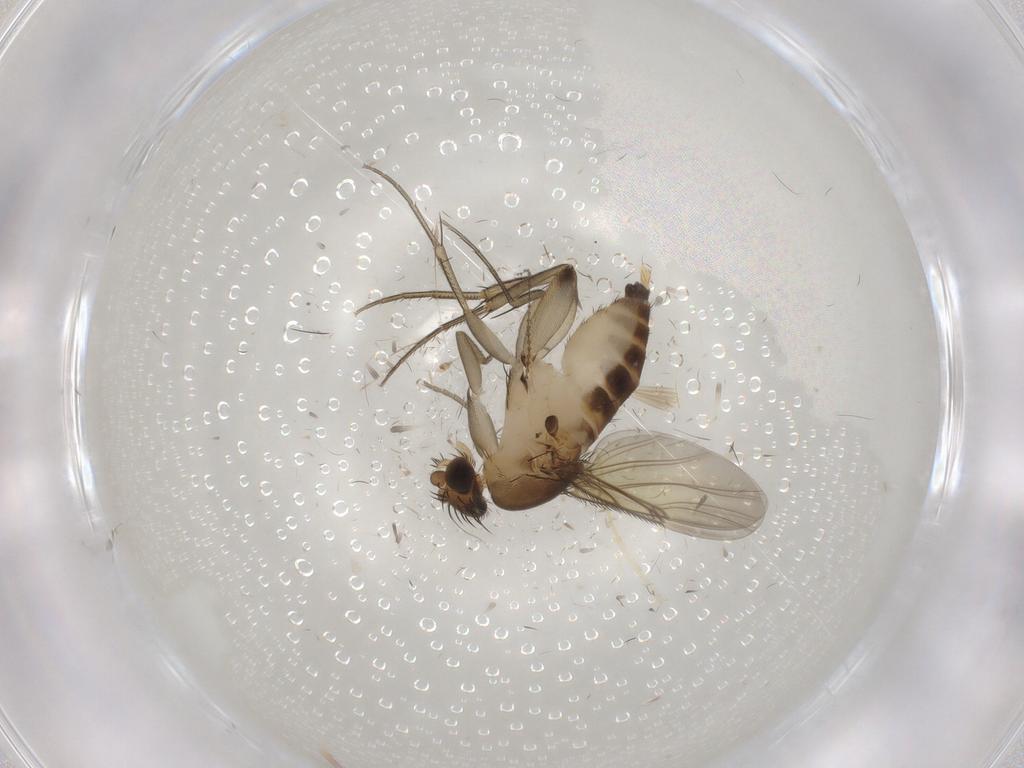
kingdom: Animalia
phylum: Arthropoda
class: Insecta
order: Diptera
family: Cecidomyiidae
